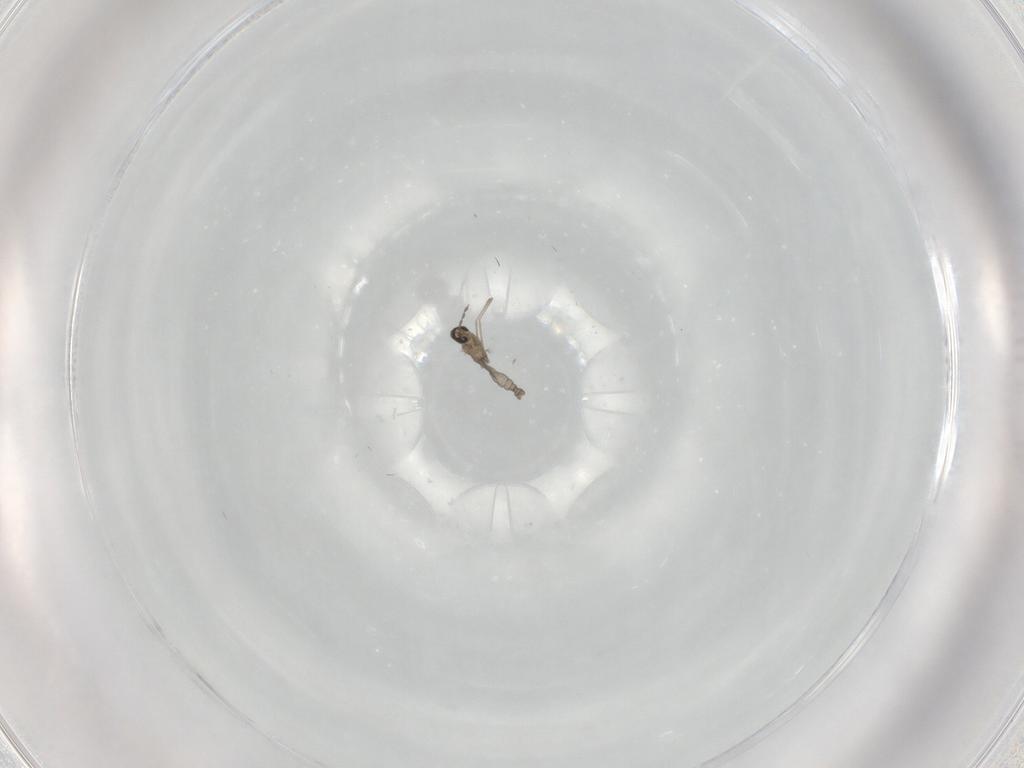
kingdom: Animalia
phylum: Arthropoda
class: Insecta
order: Diptera
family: Cecidomyiidae
